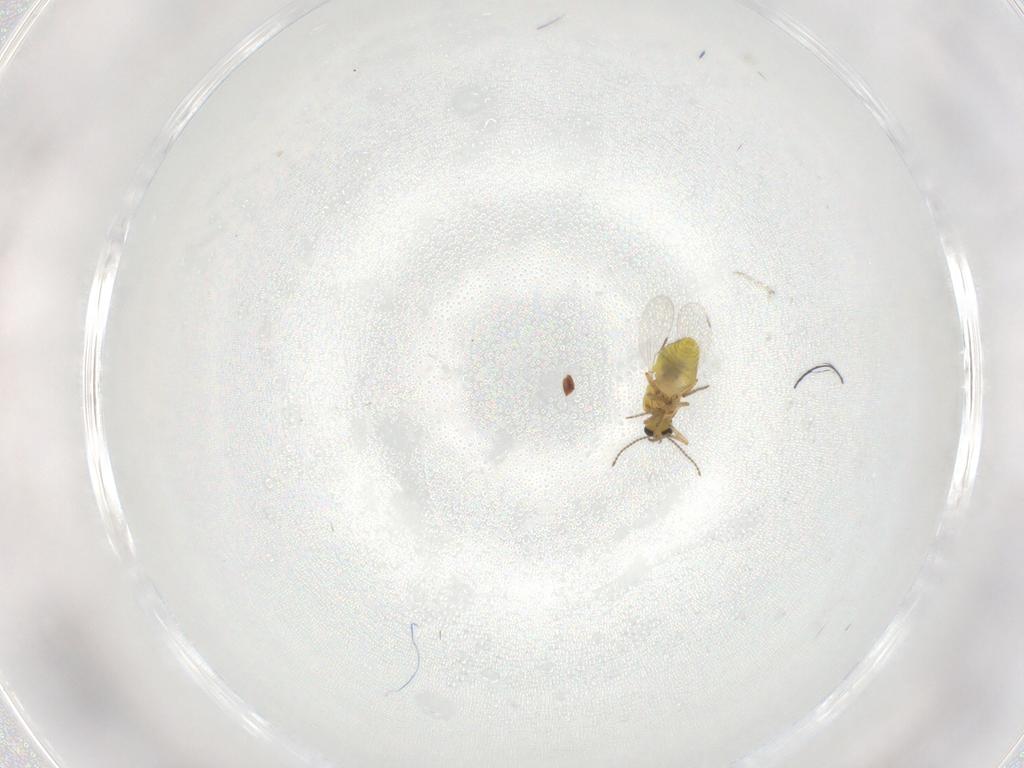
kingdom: Animalia
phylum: Arthropoda
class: Insecta
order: Diptera
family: Ceratopogonidae
